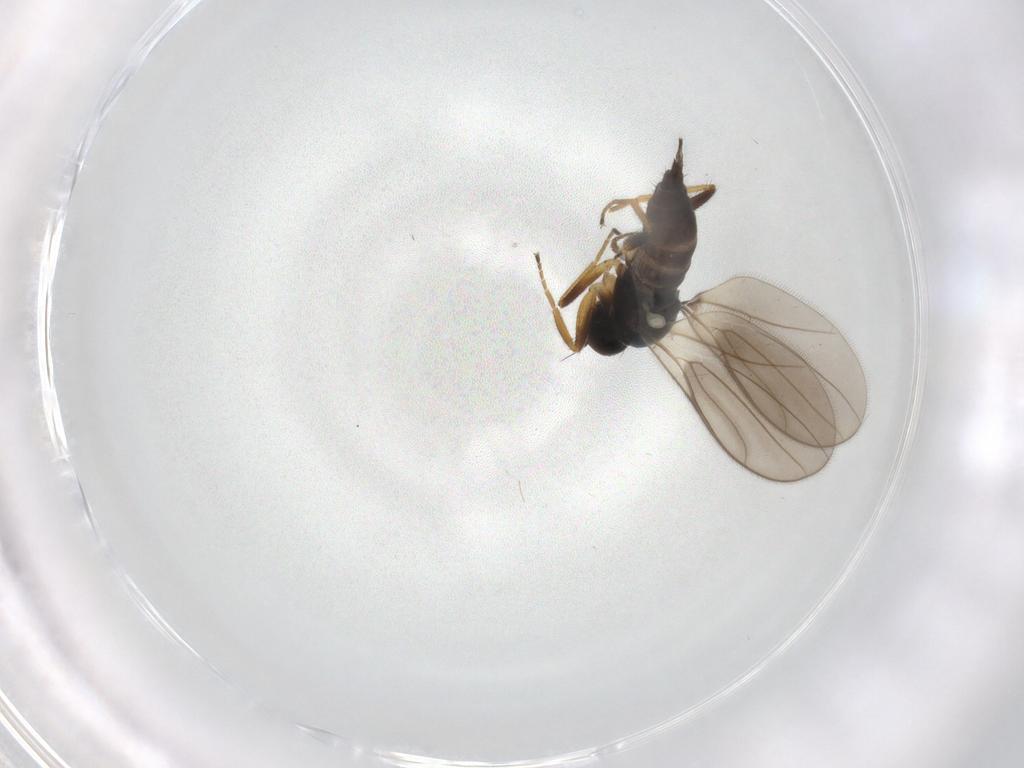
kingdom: Animalia
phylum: Arthropoda
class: Insecta
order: Diptera
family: Hybotidae
